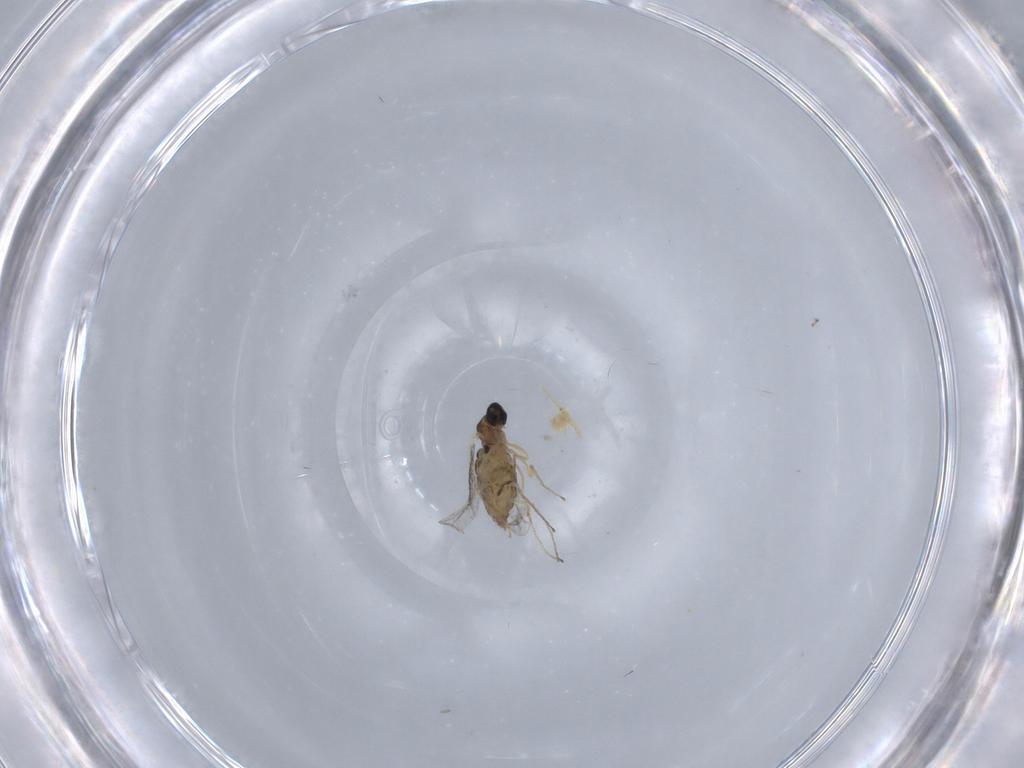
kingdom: Animalia
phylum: Arthropoda
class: Insecta
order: Diptera
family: Cecidomyiidae
